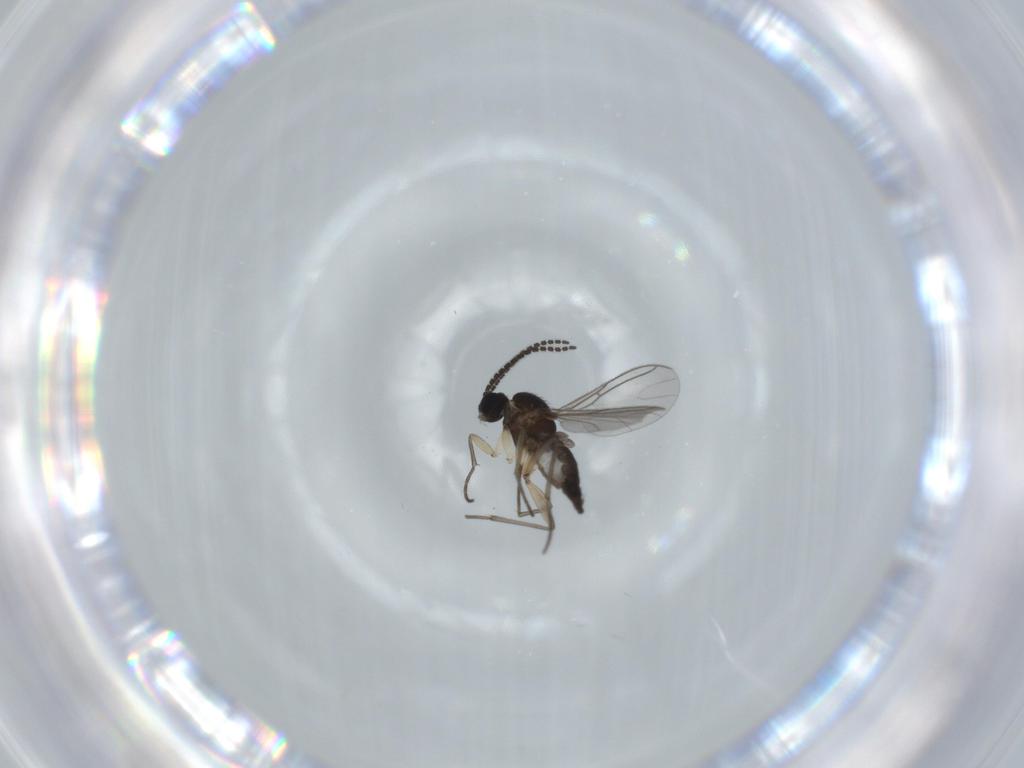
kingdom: Animalia
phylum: Arthropoda
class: Insecta
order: Diptera
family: Sciaridae
